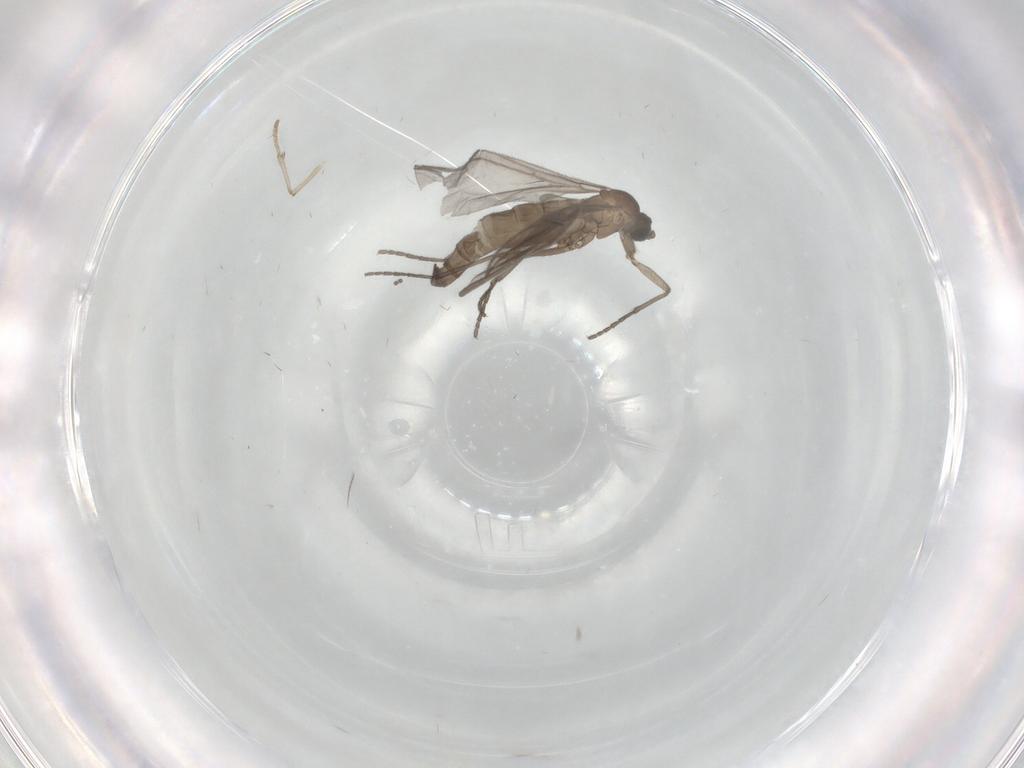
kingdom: Animalia
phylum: Arthropoda
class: Insecta
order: Diptera
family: Sciaridae
